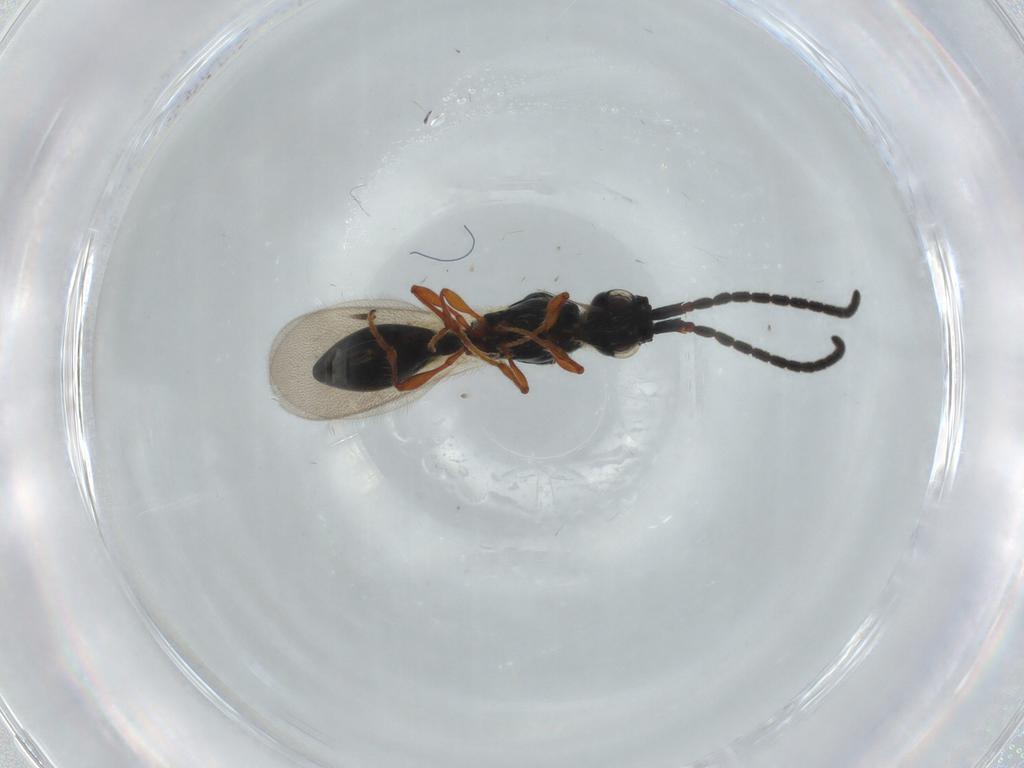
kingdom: Animalia
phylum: Arthropoda
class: Insecta
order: Hymenoptera
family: Diapriidae
